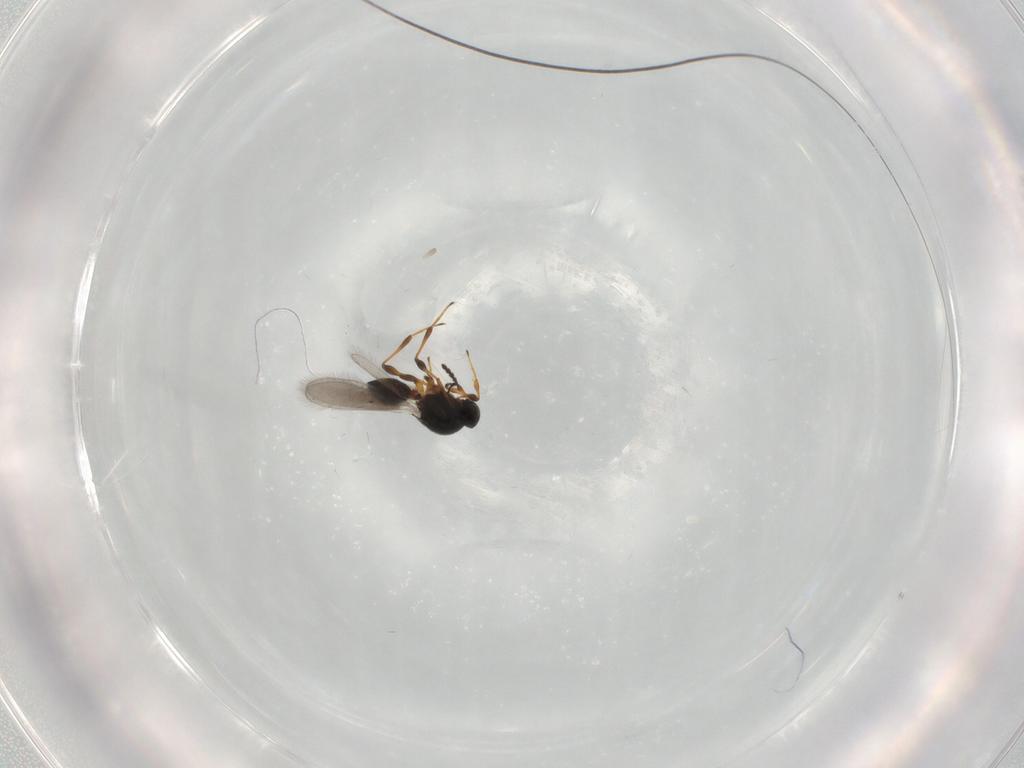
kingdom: Animalia
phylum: Arthropoda
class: Insecta
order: Hymenoptera
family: Platygastridae
